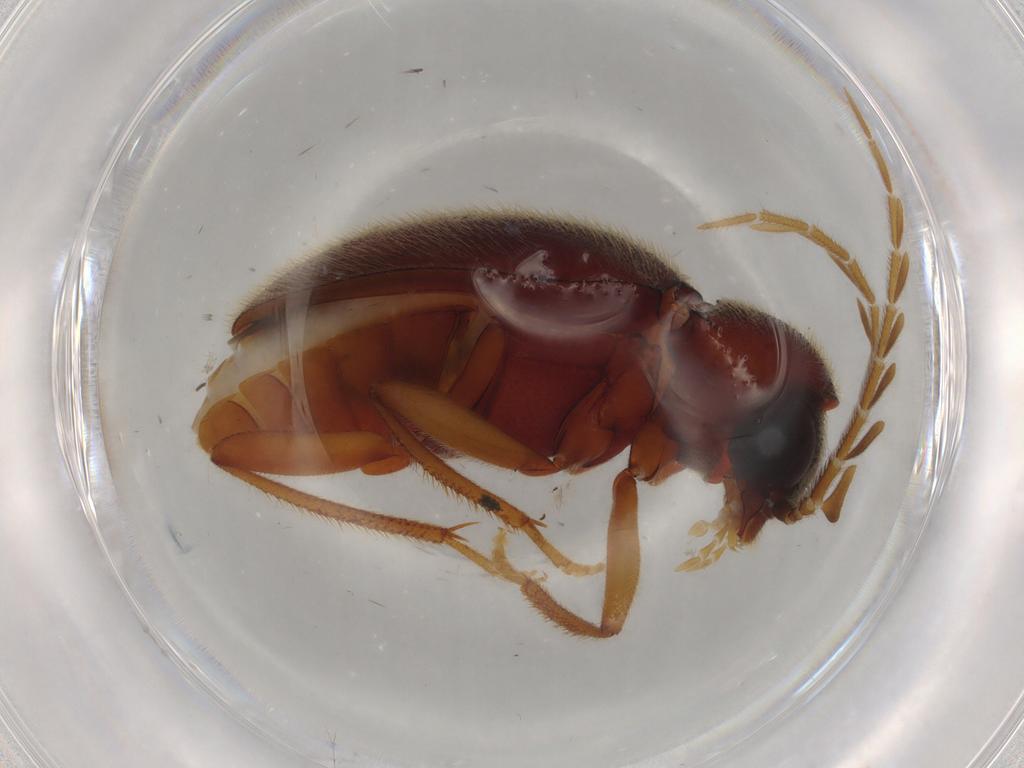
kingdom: Animalia
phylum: Arthropoda
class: Insecta
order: Coleoptera
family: Ptilodactylidae
